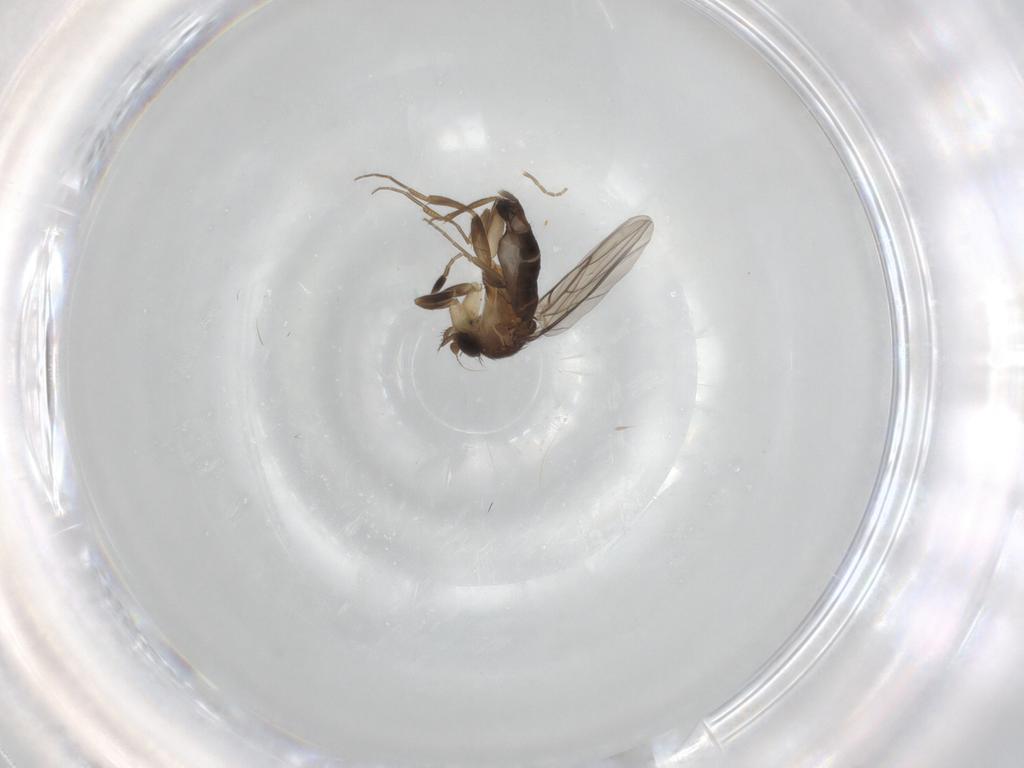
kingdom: Animalia
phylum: Arthropoda
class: Insecta
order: Diptera
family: Phoridae
